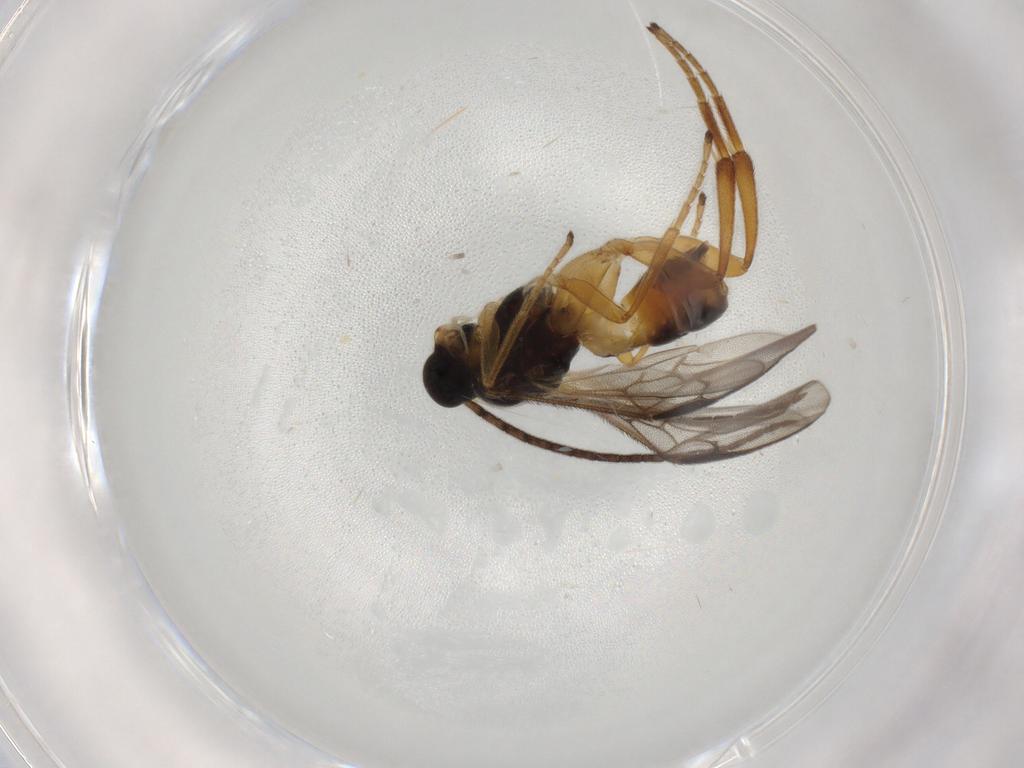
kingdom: Animalia
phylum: Arthropoda
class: Insecta
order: Hymenoptera
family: Braconidae
